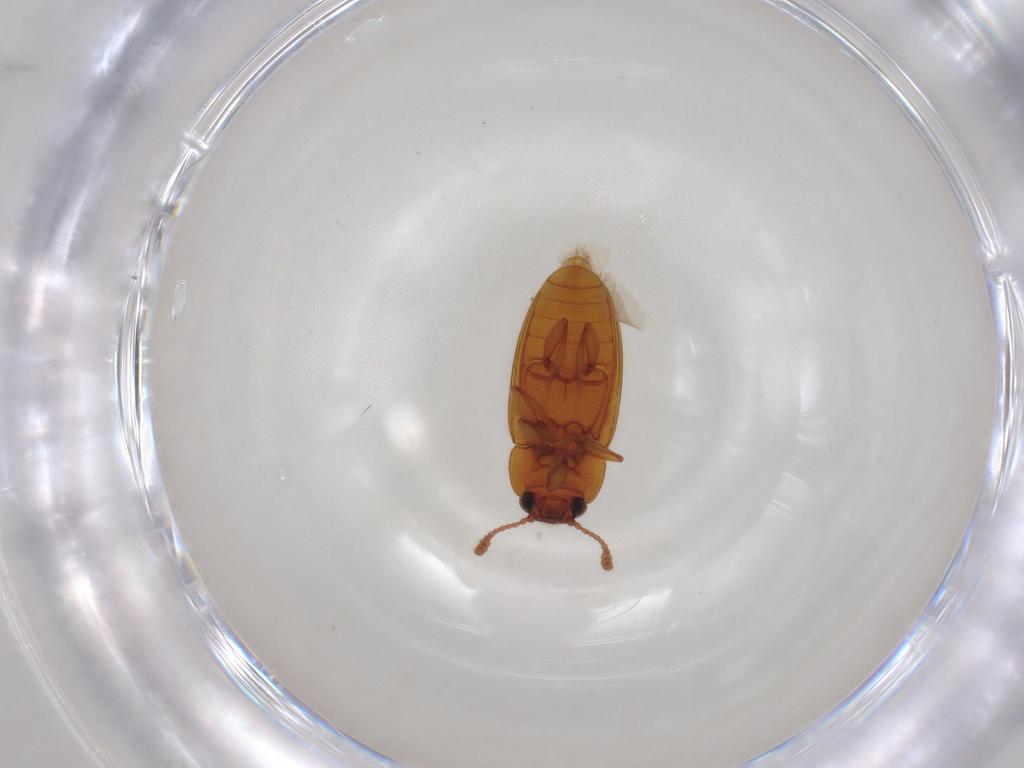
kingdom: Animalia
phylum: Arthropoda
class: Insecta
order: Coleoptera
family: Erotylidae
